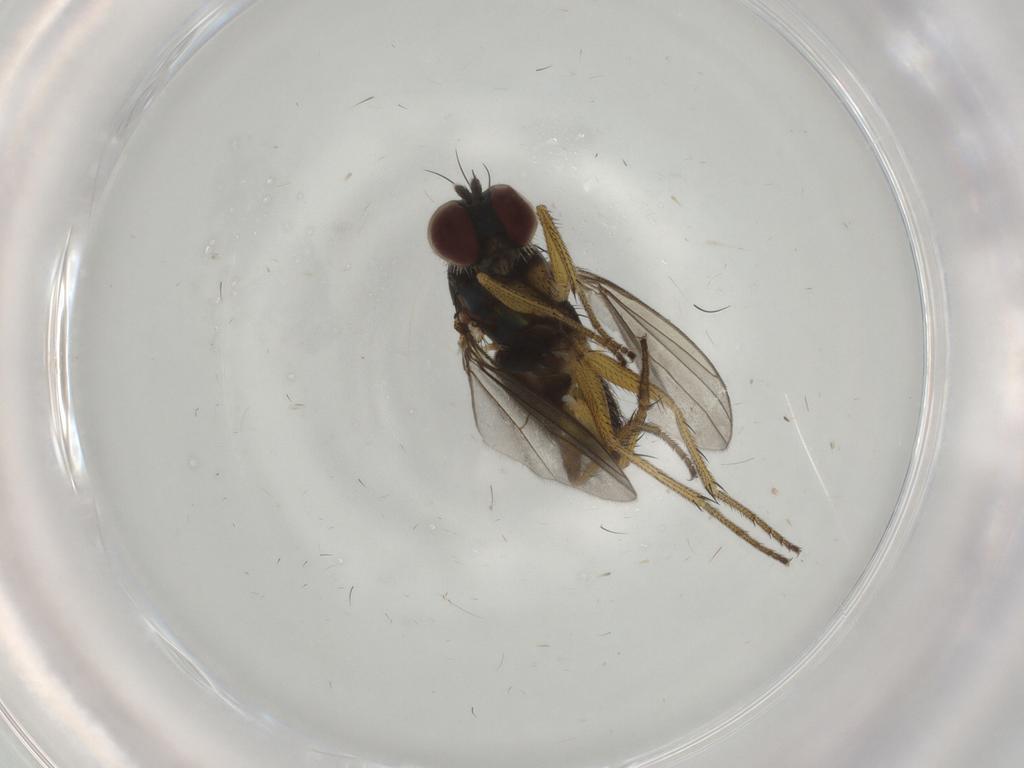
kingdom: Animalia
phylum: Arthropoda
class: Insecta
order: Diptera
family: Dolichopodidae
